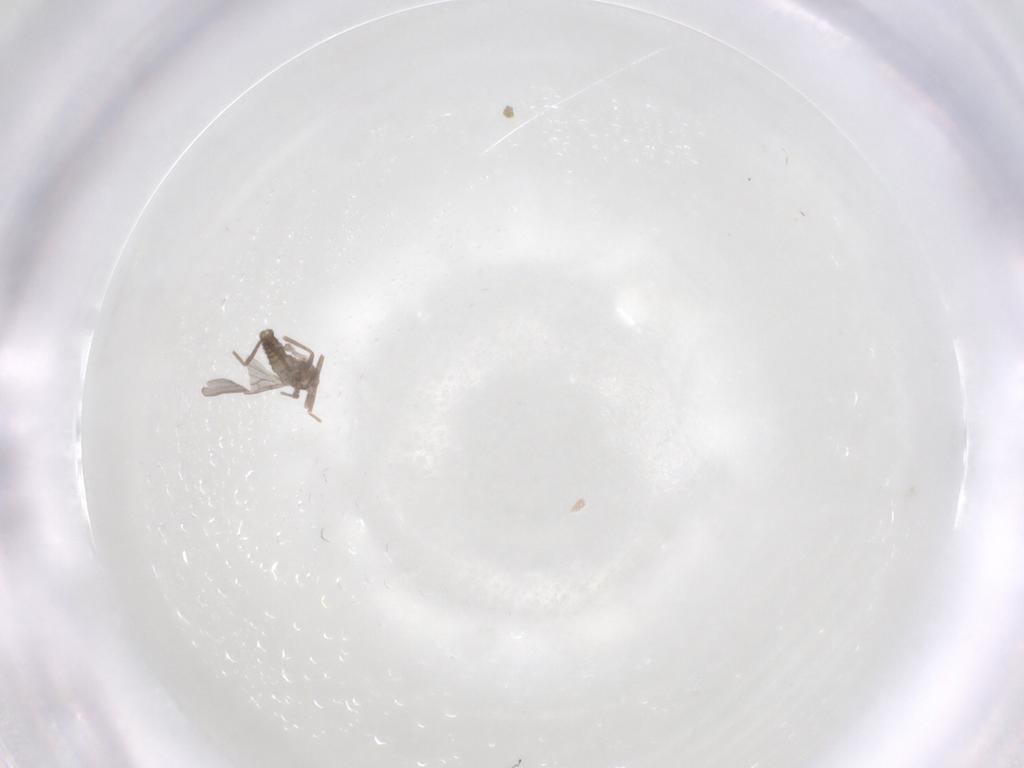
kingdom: Animalia
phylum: Arthropoda
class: Insecta
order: Diptera
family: Cecidomyiidae
